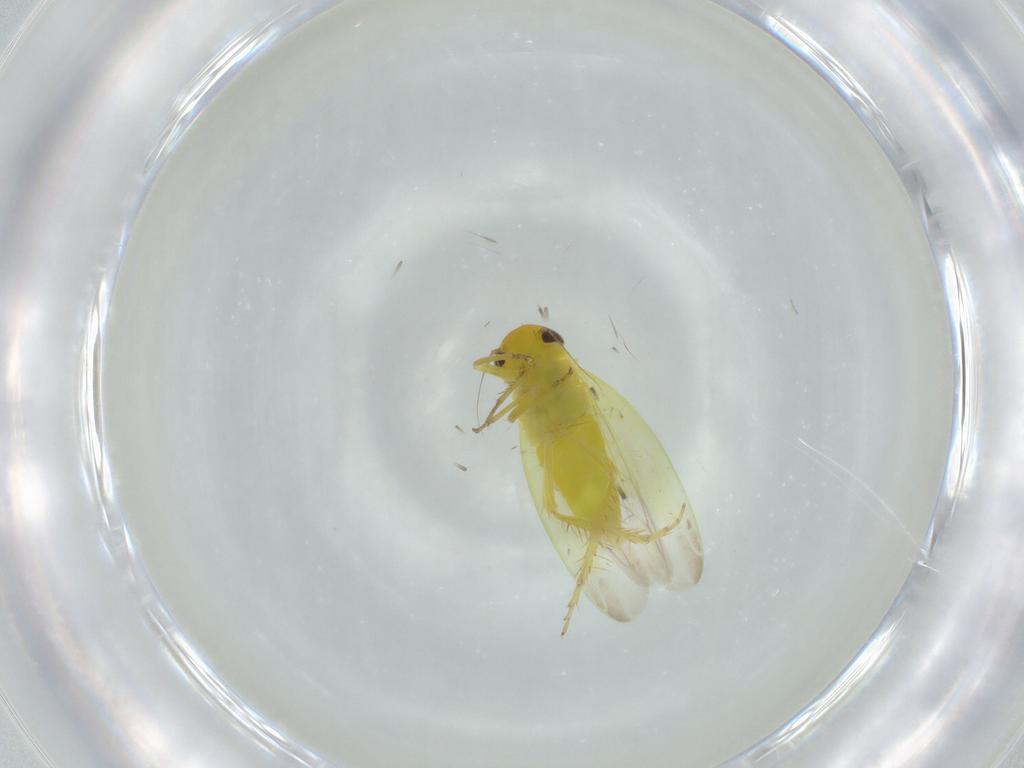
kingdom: Animalia
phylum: Arthropoda
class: Insecta
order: Hemiptera
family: Cicadellidae
